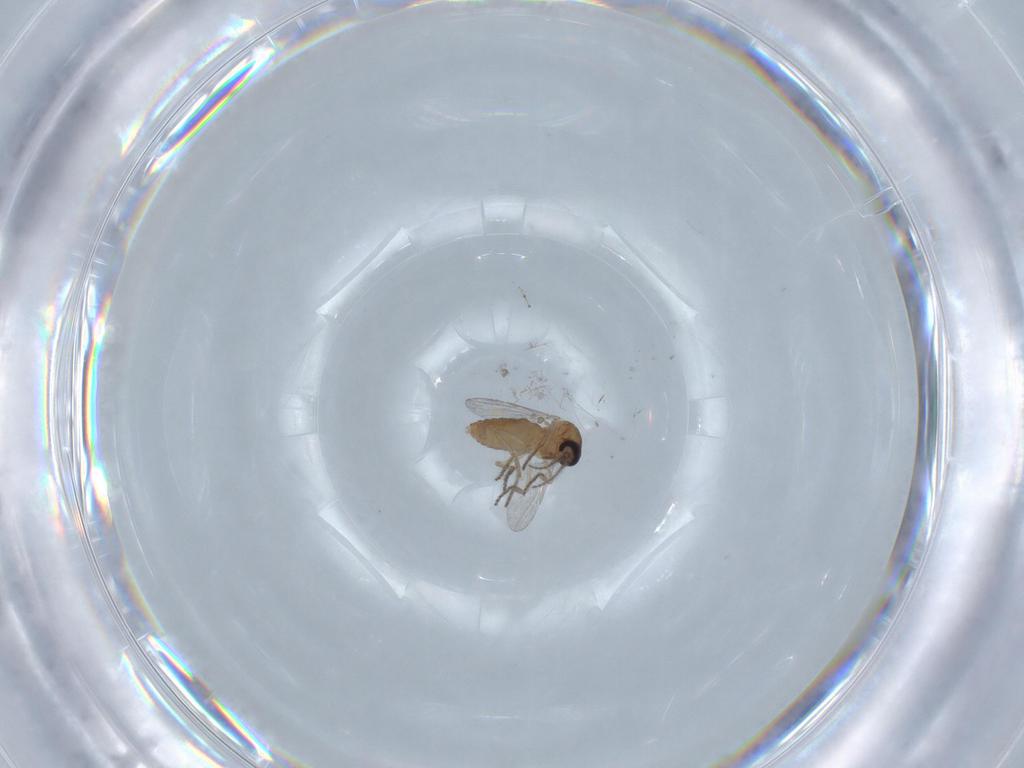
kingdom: Animalia
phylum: Arthropoda
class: Insecta
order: Diptera
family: Ceratopogonidae
